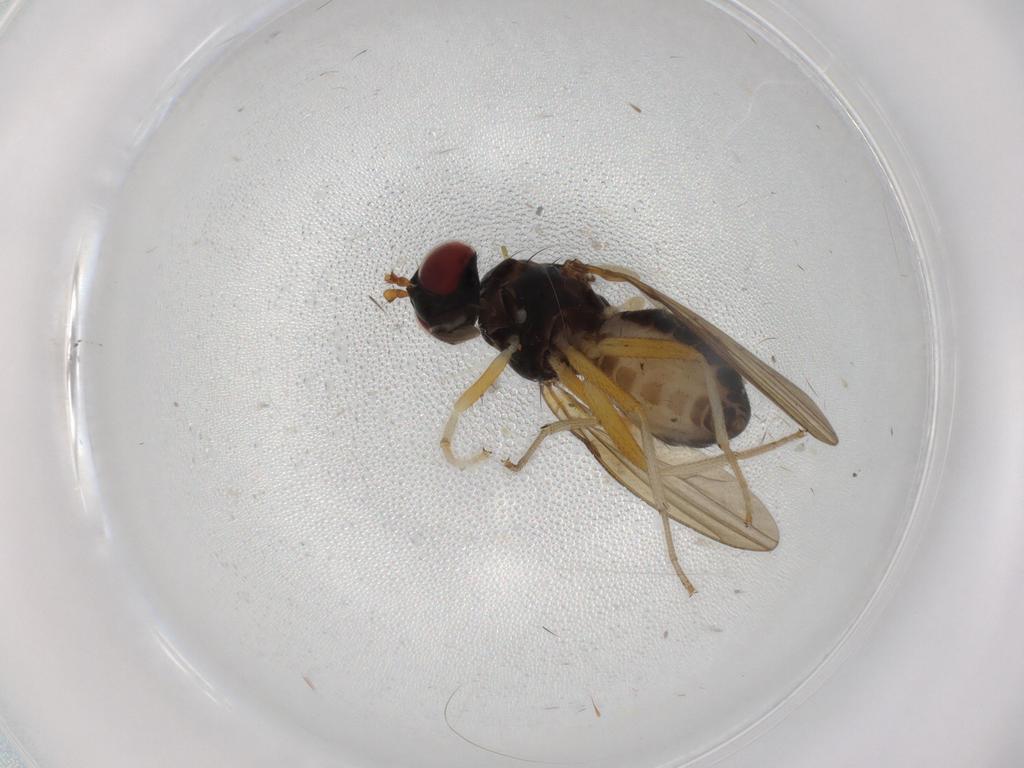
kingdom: Animalia
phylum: Arthropoda
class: Insecta
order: Diptera
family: Lauxaniidae
